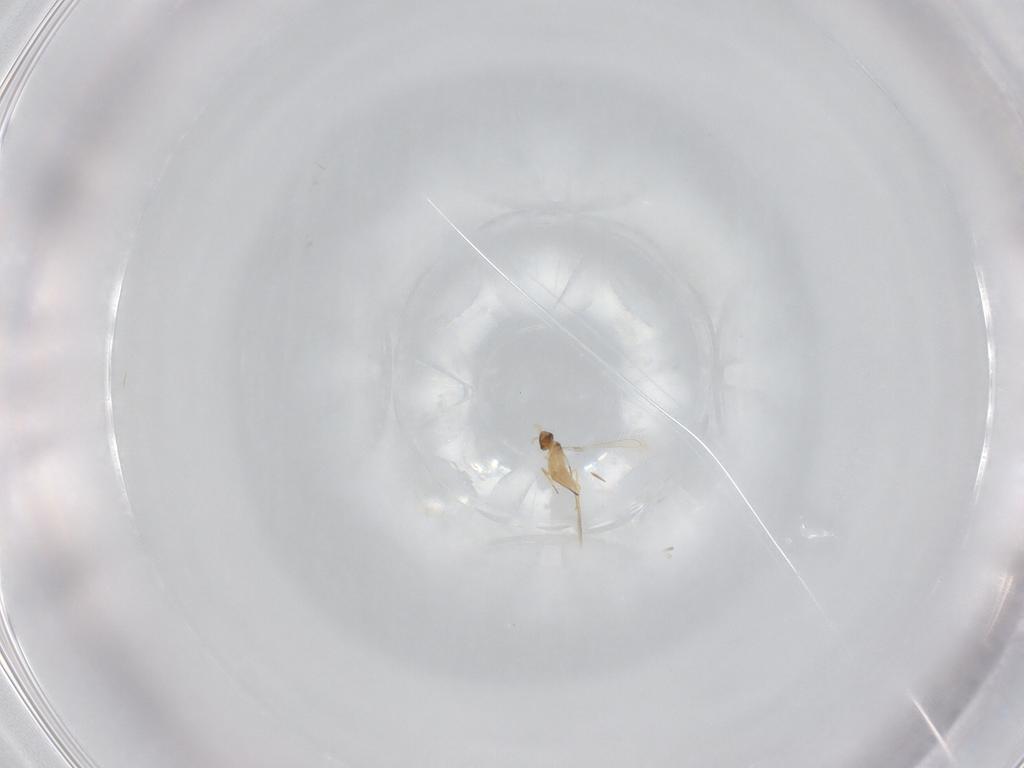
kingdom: Animalia
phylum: Arthropoda
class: Insecta
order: Hymenoptera
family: Mymaridae
